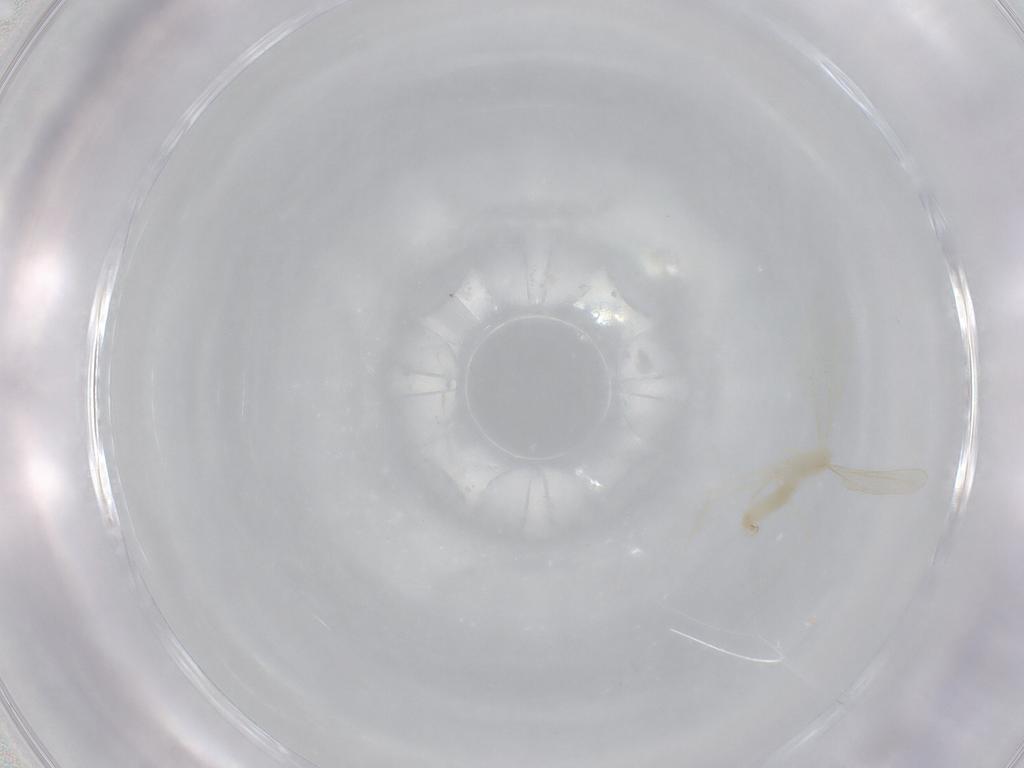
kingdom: Animalia
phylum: Arthropoda
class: Insecta
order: Diptera
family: Cecidomyiidae
